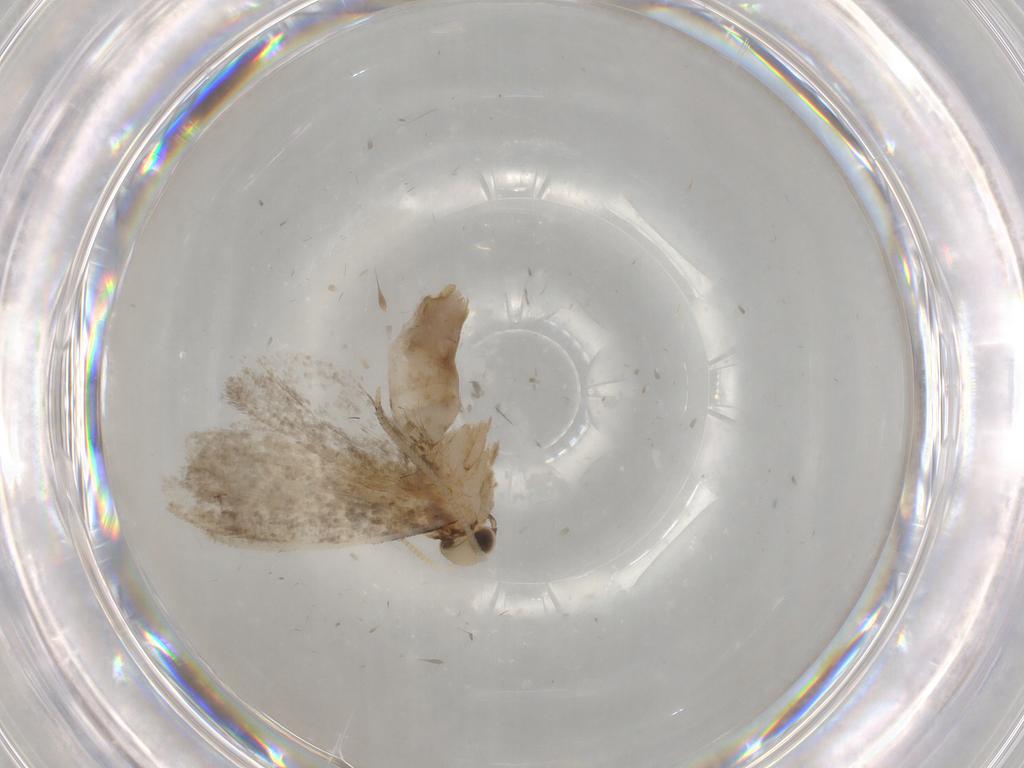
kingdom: Animalia
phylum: Arthropoda
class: Insecta
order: Lepidoptera
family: Dryadaulidae
